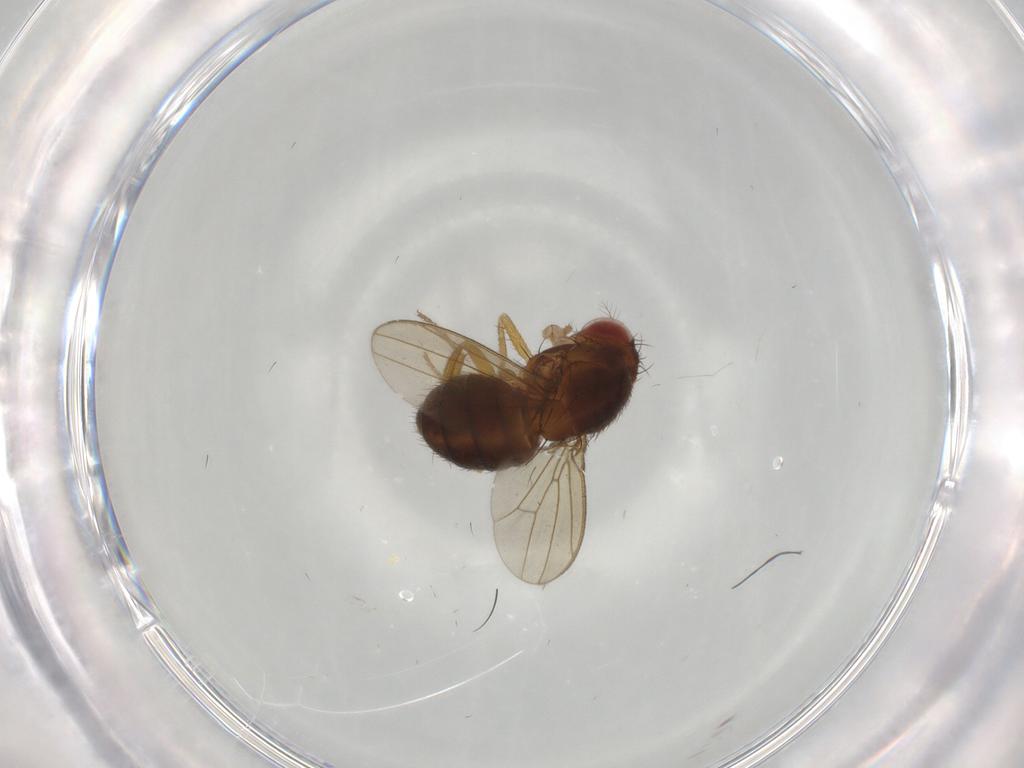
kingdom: Animalia
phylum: Arthropoda
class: Insecta
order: Diptera
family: Drosophilidae
